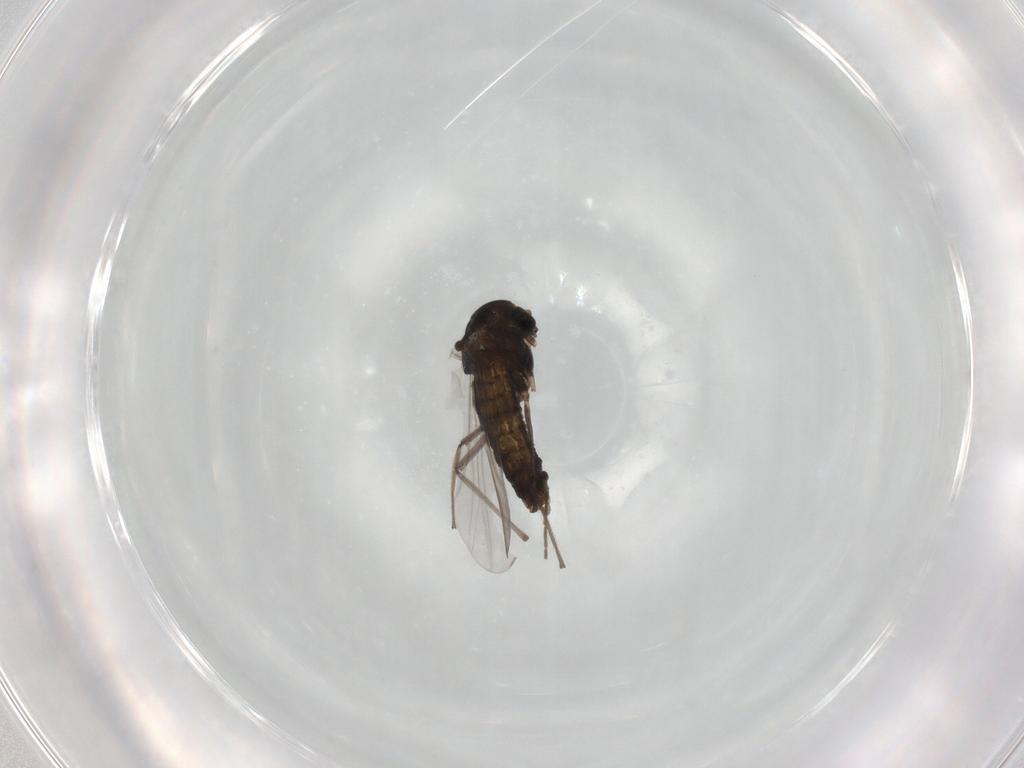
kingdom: Animalia
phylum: Arthropoda
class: Insecta
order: Diptera
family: Chironomidae
